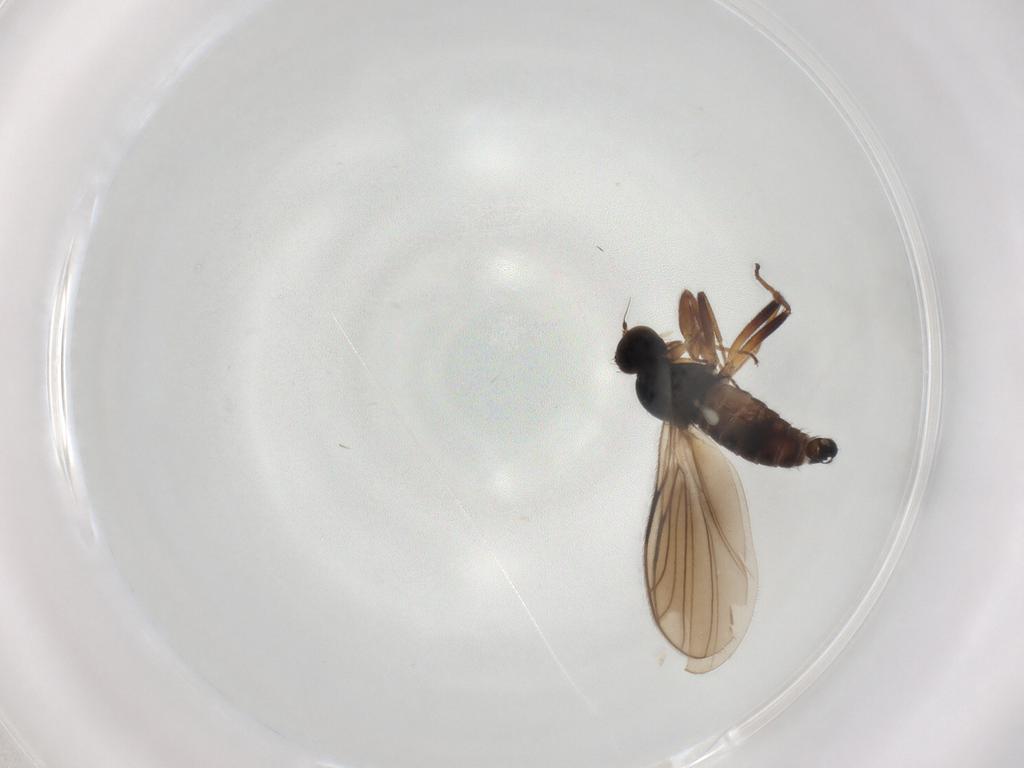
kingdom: Animalia
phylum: Arthropoda
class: Insecta
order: Diptera
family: Hybotidae
